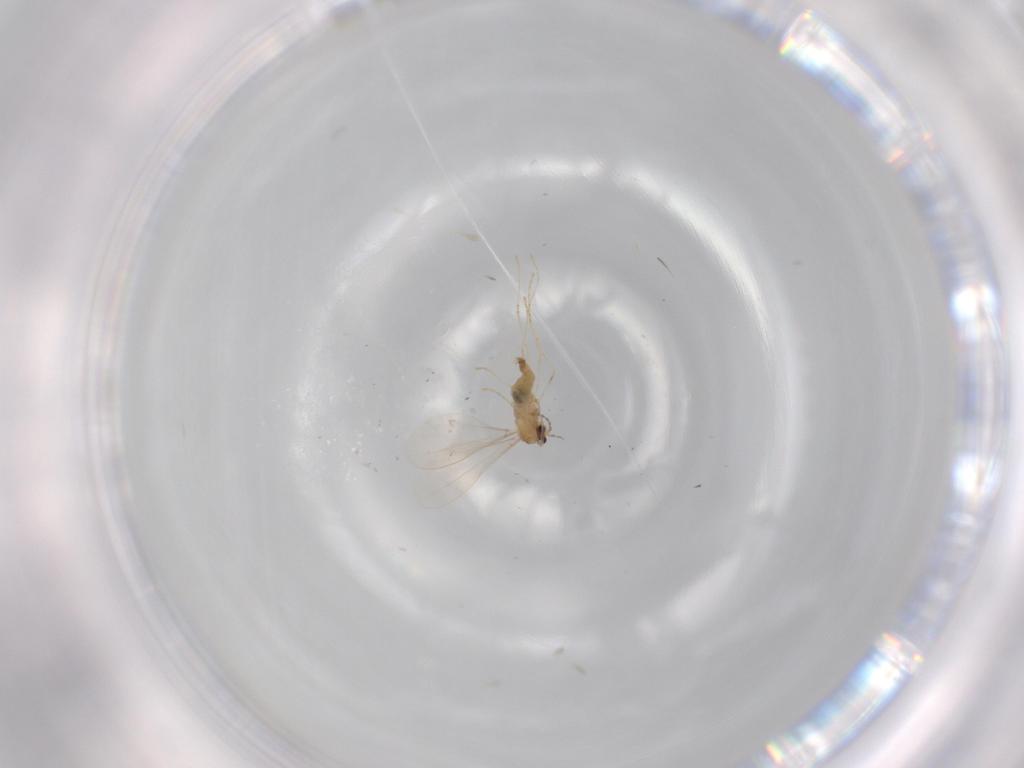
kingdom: Animalia
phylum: Arthropoda
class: Insecta
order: Diptera
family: Cecidomyiidae
